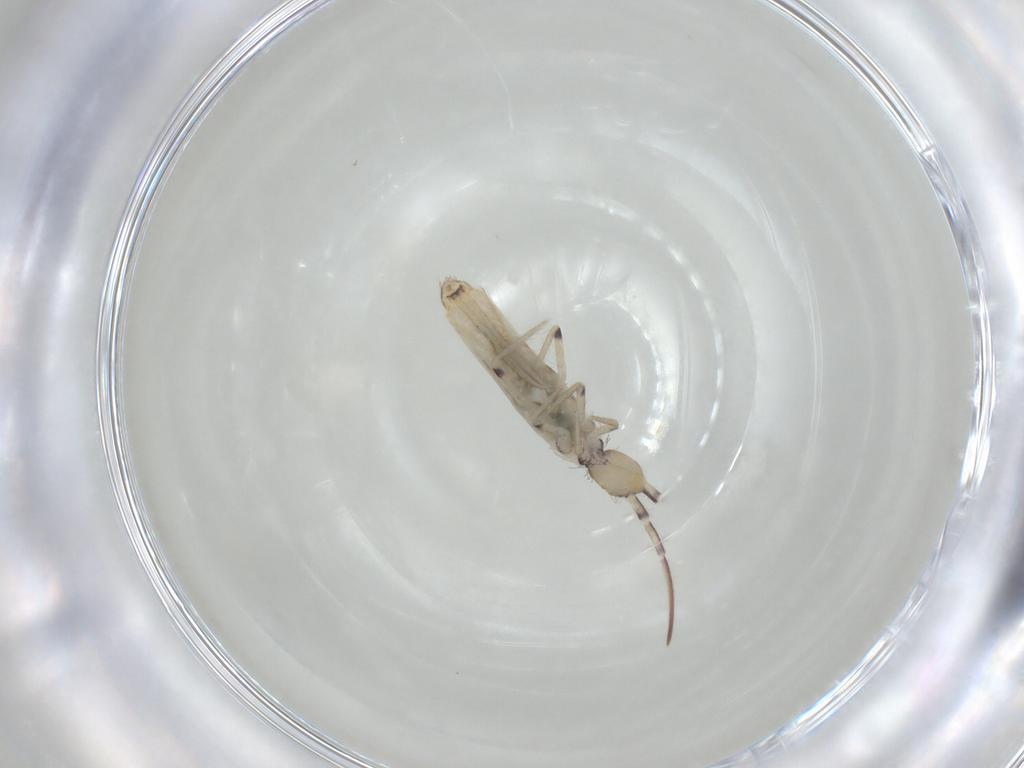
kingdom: Animalia
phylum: Arthropoda
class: Collembola
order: Entomobryomorpha
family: Entomobryidae
